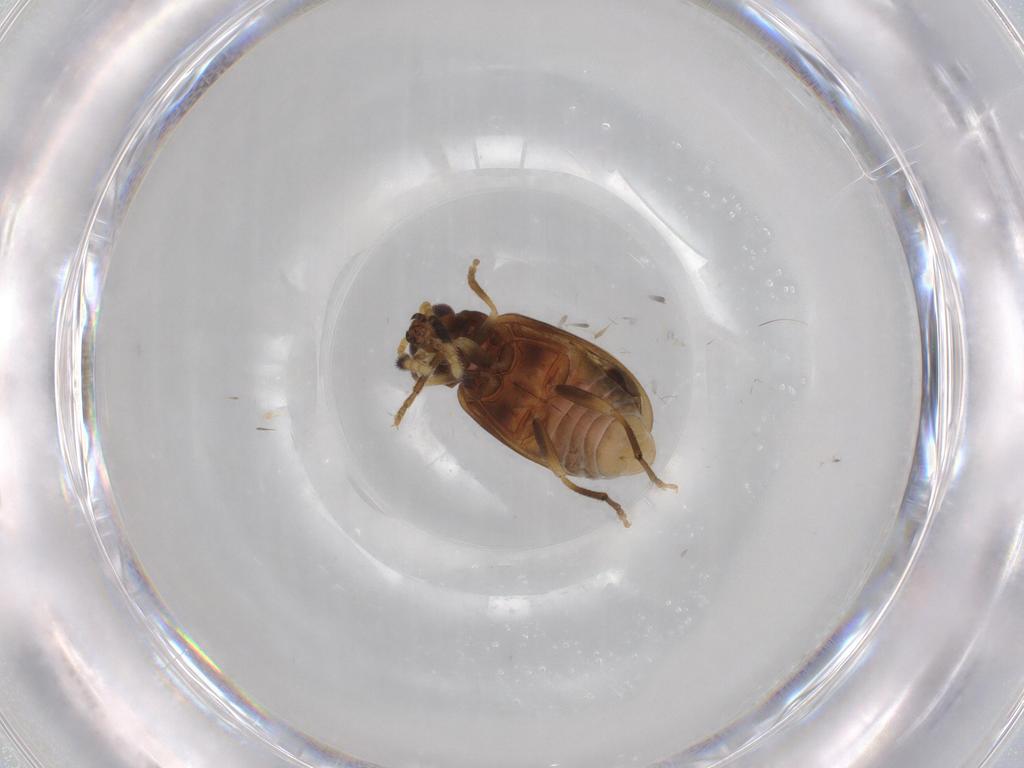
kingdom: Animalia
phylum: Arthropoda
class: Insecta
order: Coleoptera
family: Chrysomelidae
